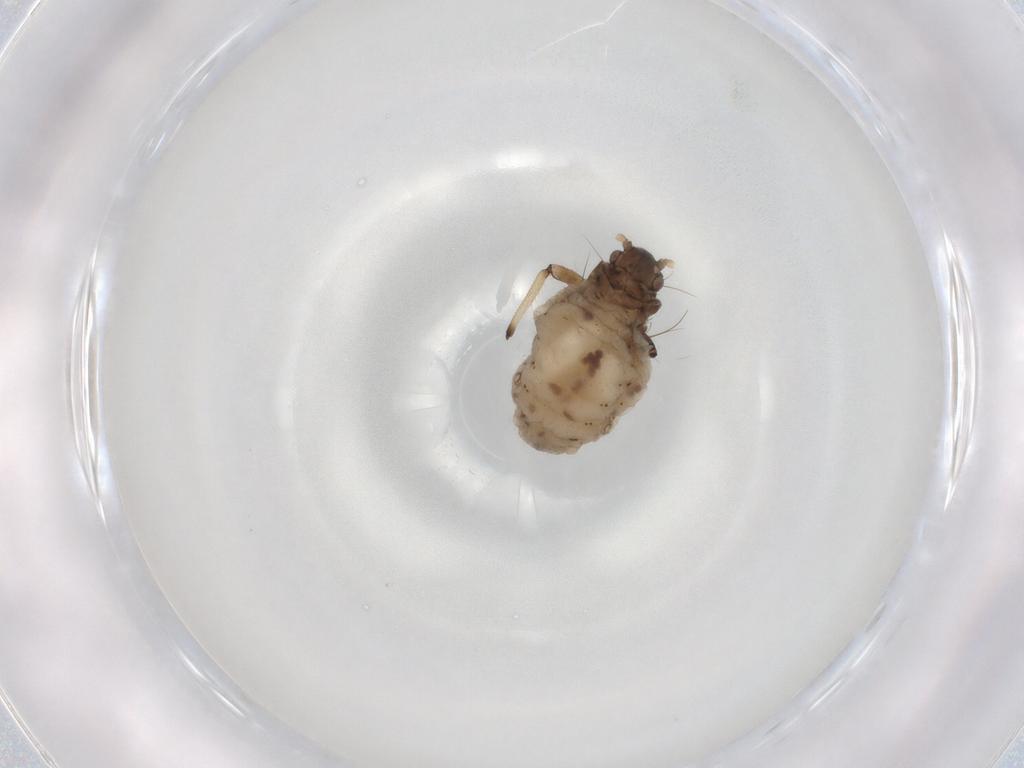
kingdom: Animalia
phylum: Arthropoda
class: Insecta
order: Hemiptera
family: Aphididae
